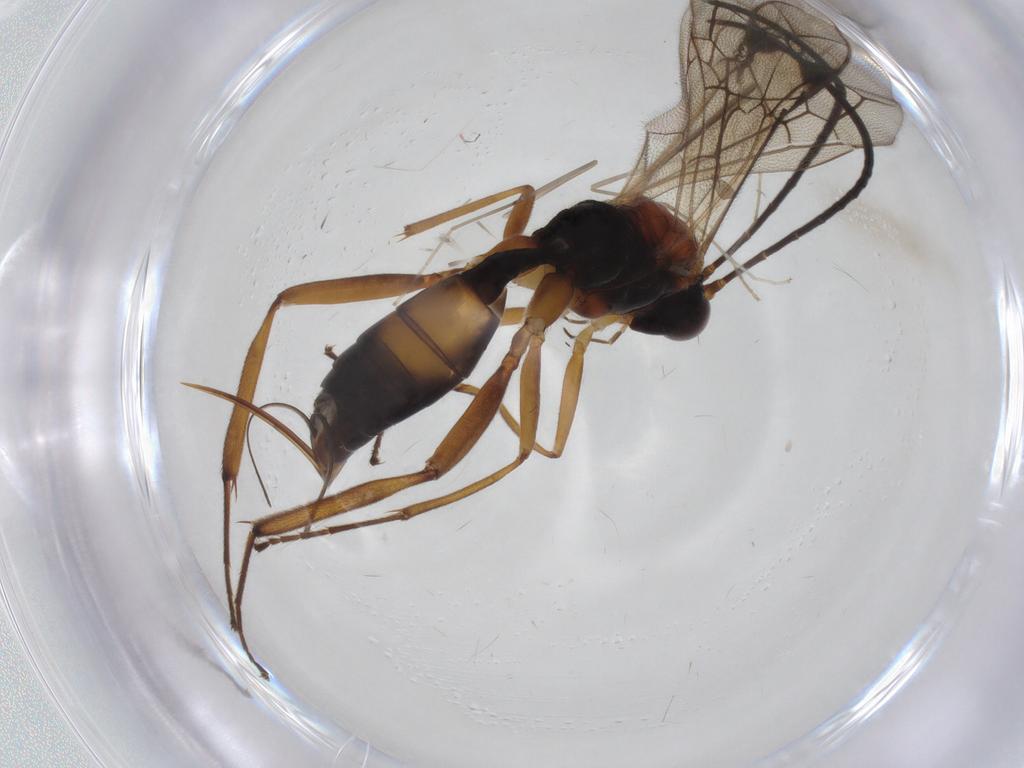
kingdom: Animalia
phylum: Arthropoda
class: Insecta
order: Hymenoptera
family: Ichneumonidae
